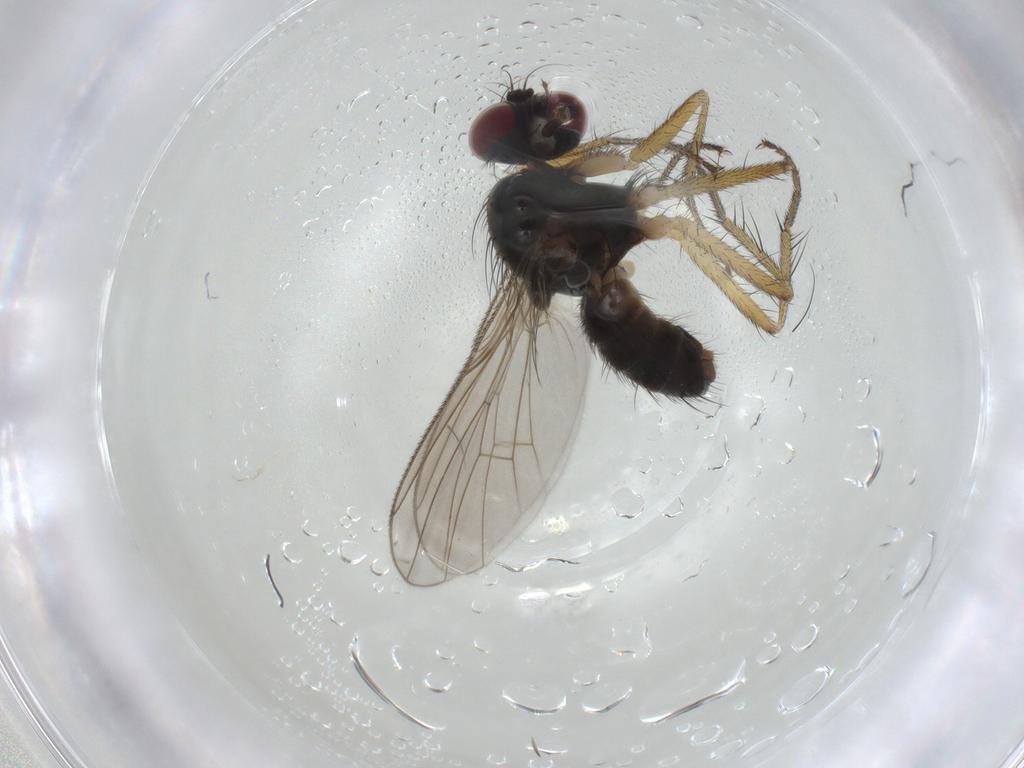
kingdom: Animalia
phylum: Arthropoda
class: Insecta
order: Diptera
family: Muscidae
